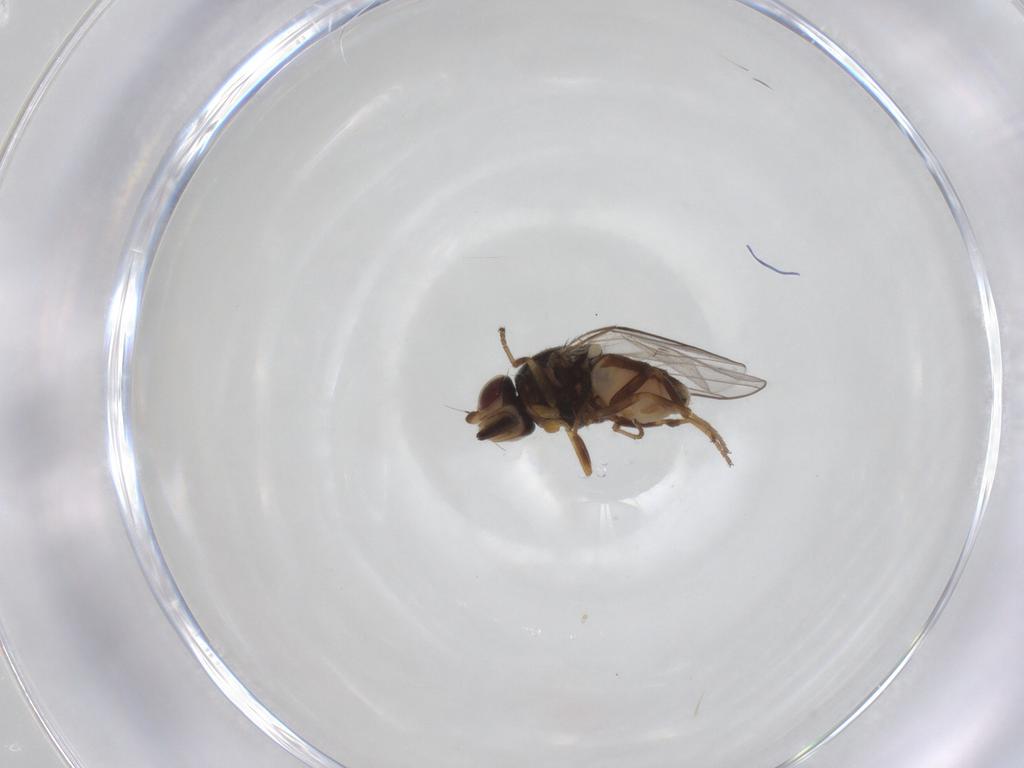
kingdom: Animalia
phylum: Arthropoda
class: Insecta
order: Diptera
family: Chloropidae
